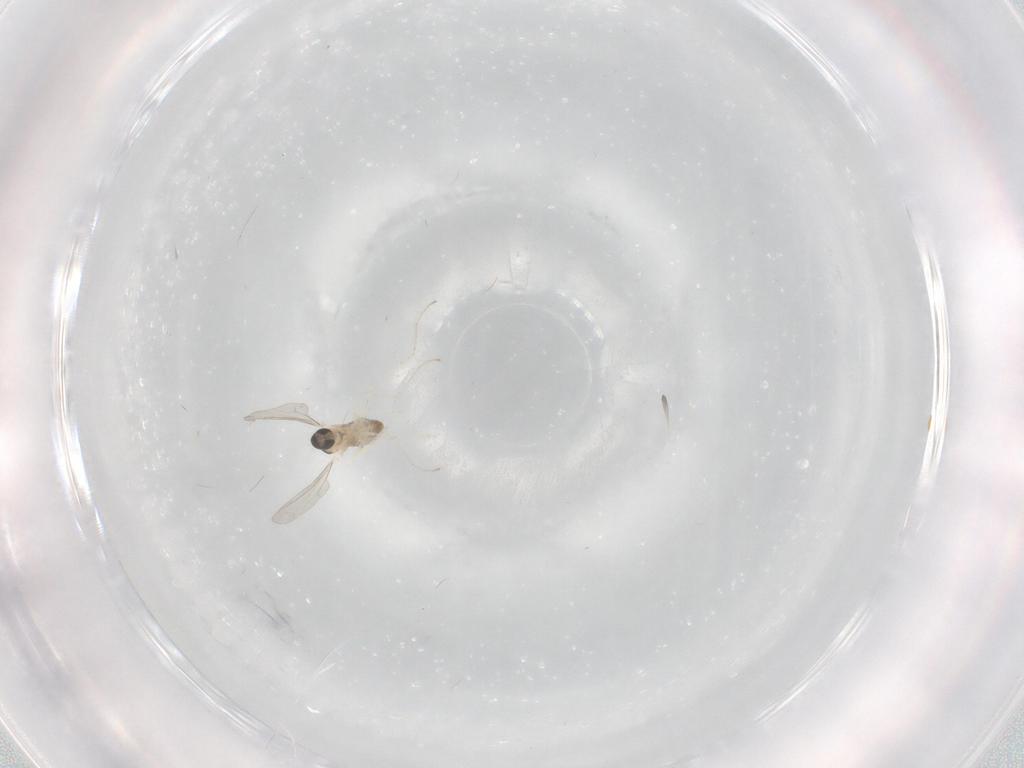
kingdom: Animalia
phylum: Arthropoda
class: Insecta
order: Diptera
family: Cecidomyiidae
